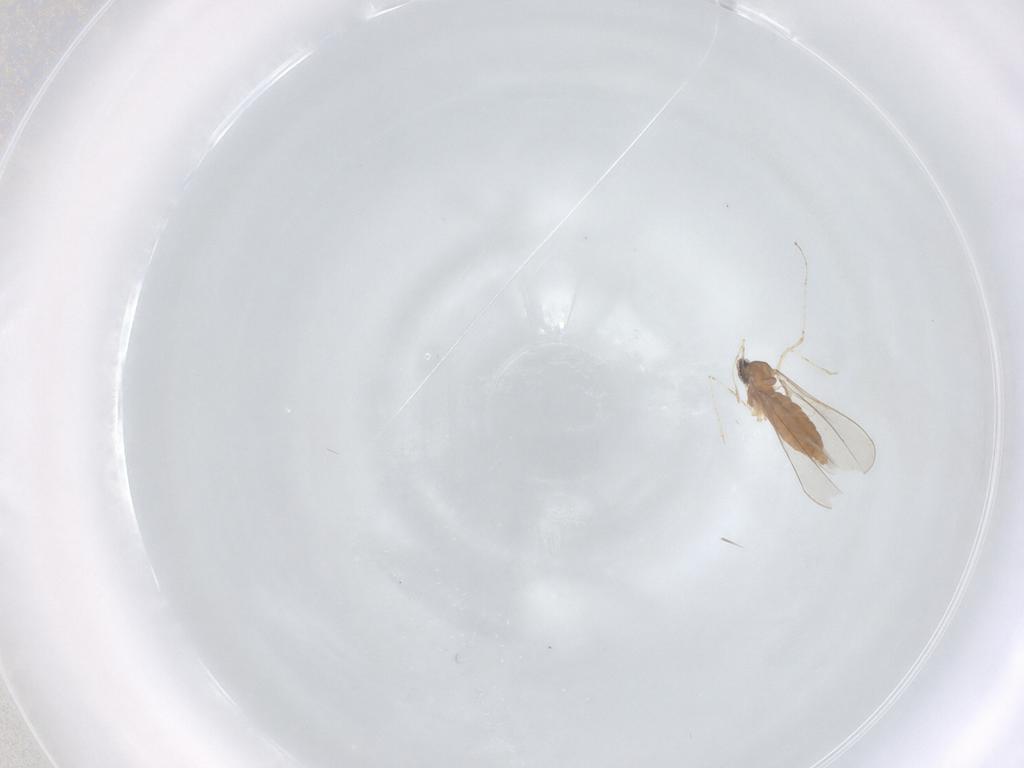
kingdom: Animalia
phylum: Arthropoda
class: Insecta
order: Diptera
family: Cecidomyiidae
